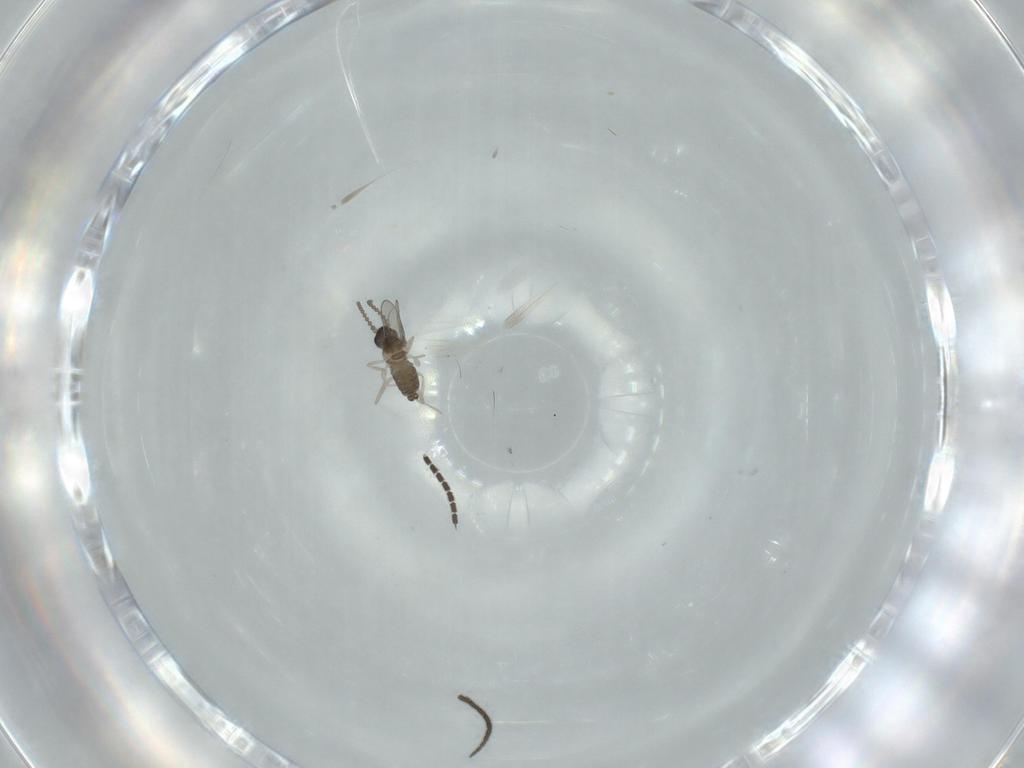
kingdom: Animalia
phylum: Arthropoda
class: Insecta
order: Diptera
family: Cecidomyiidae
